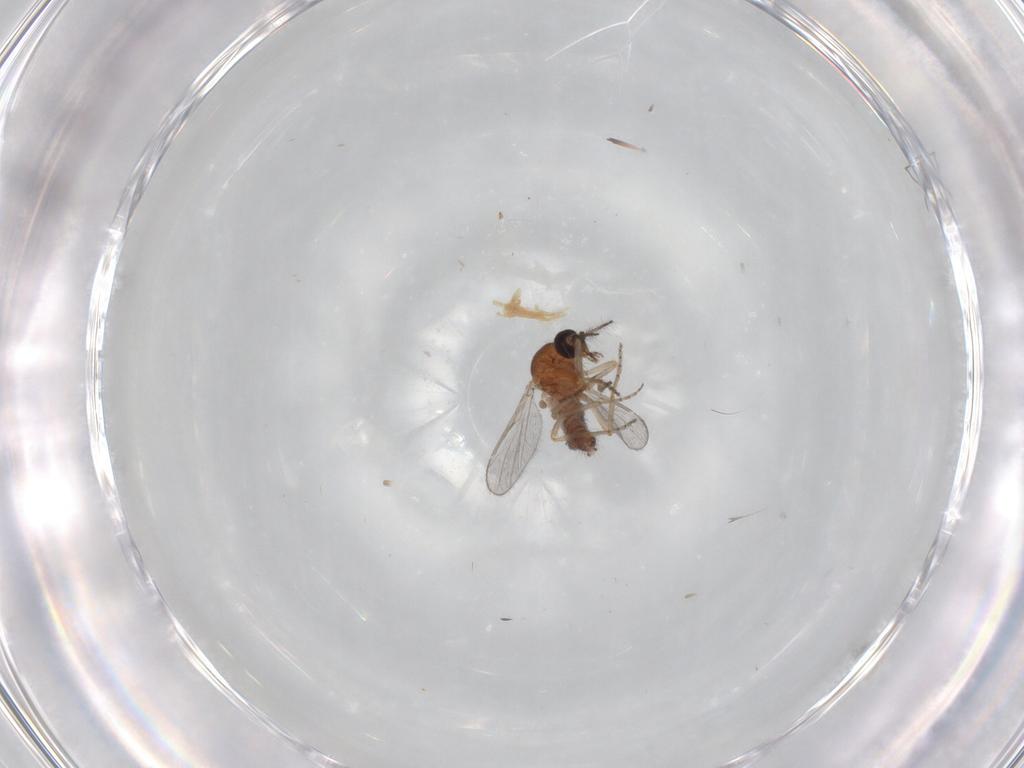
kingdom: Animalia
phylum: Arthropoda
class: Insecta
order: Diptera
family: Ceratopogonidae
